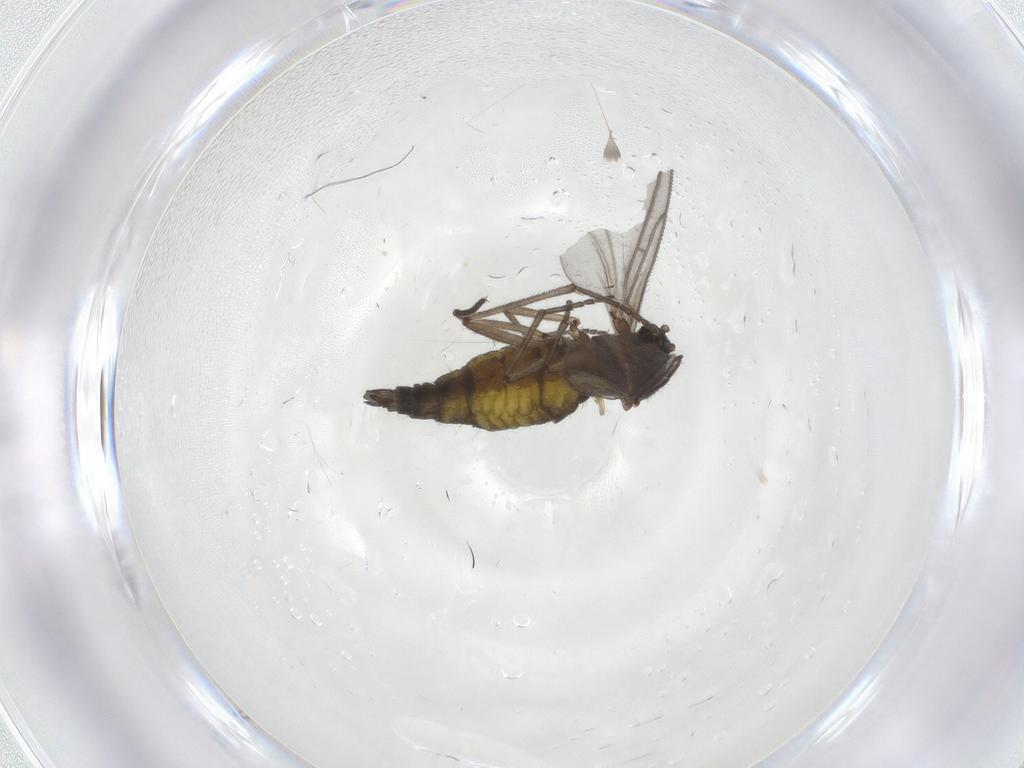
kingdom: Animalia
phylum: Arthropoda
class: Insecta
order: Diptera
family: Sciaridae
